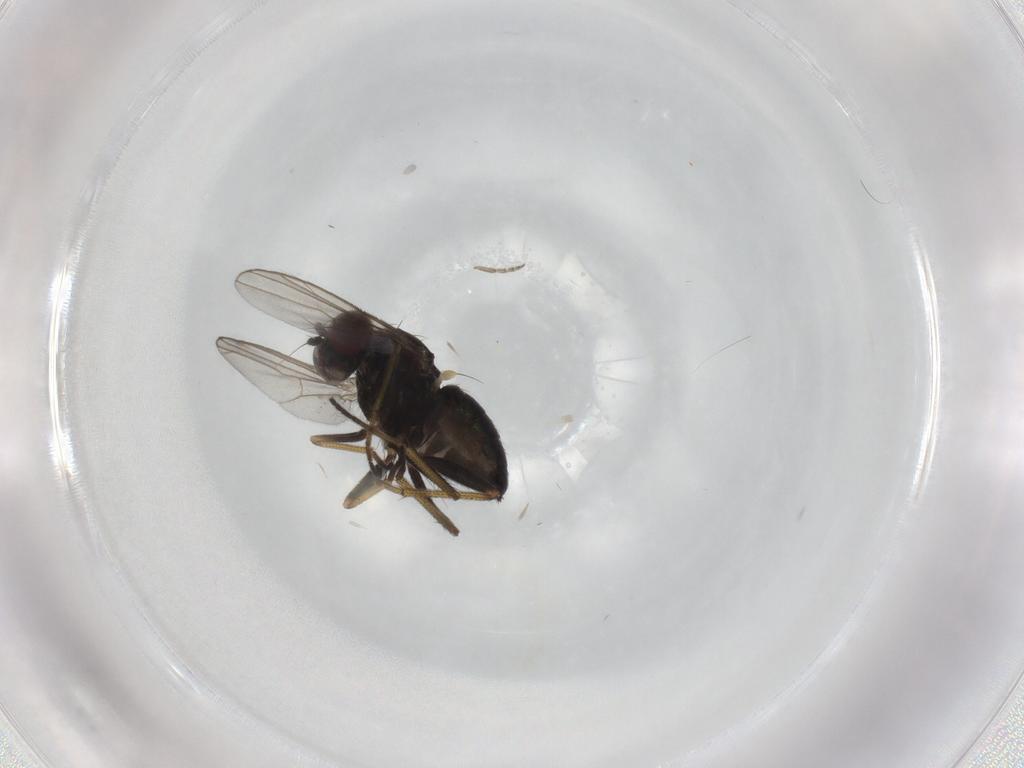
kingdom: Animalia
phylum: Arthropoda
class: Insecta
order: Diptera
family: Dolichopodidae
